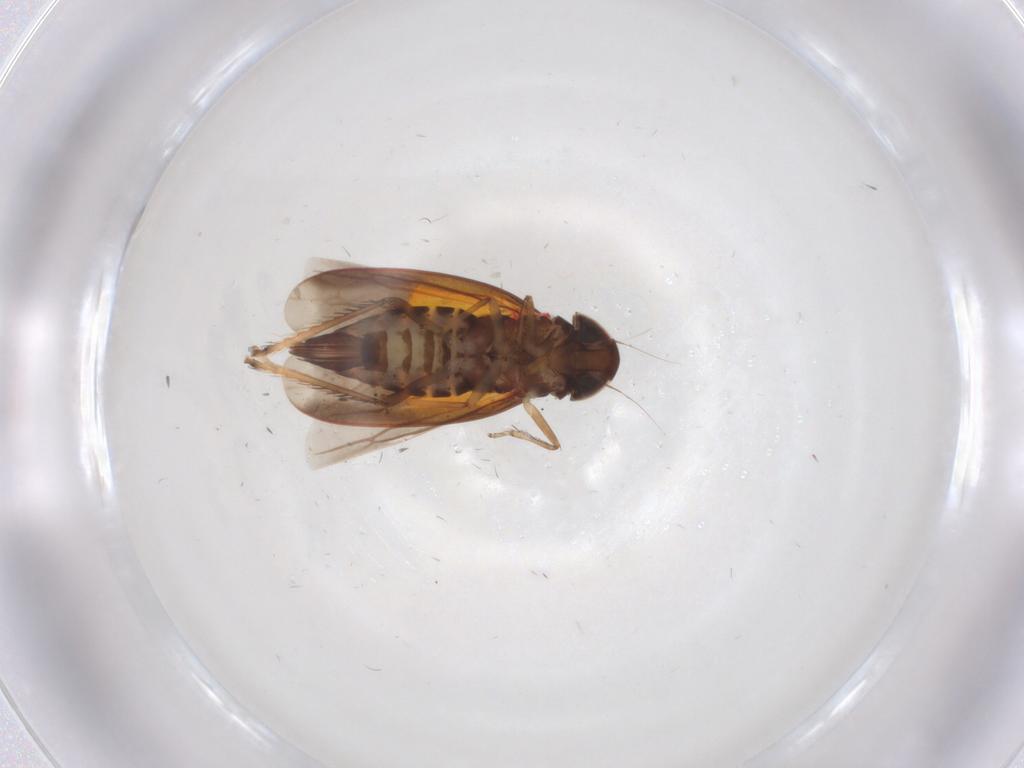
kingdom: Animalia
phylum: Arthropoda
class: Insecta
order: Hemiptera
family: Cicadellidae
